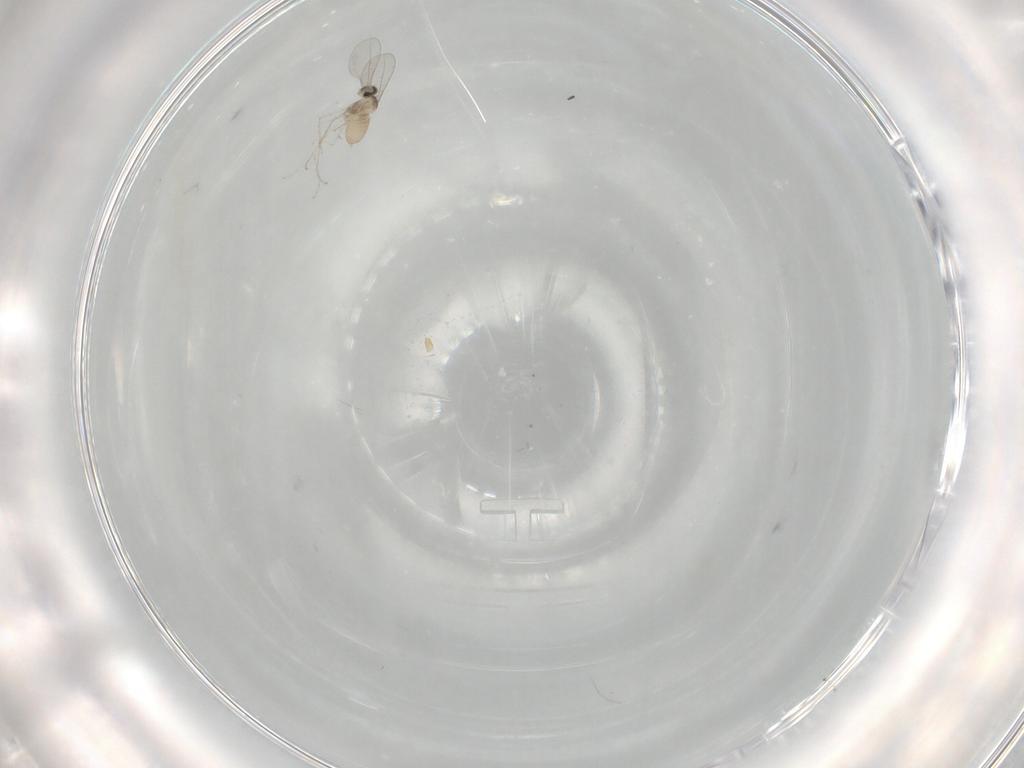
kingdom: Animalia
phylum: Arthropoda
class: Insecta
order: Diptera
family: Cecidomyiidae
